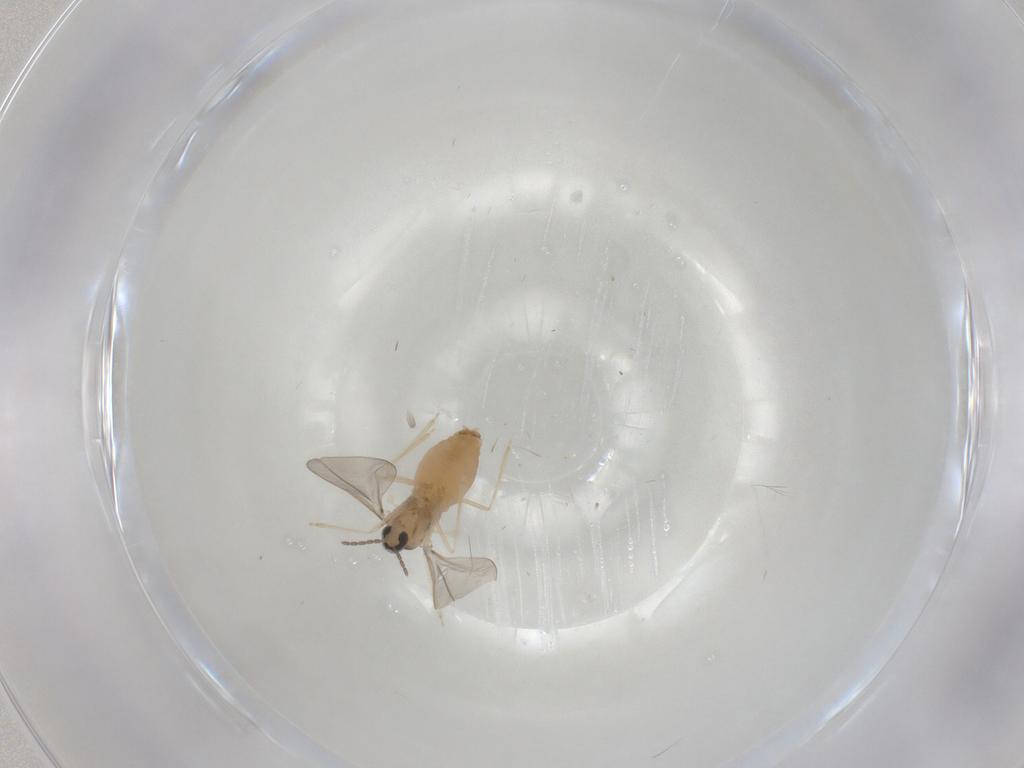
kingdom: Animalia
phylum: Arthropoda
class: Insecta
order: Diptera
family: Cecidomyiidae
